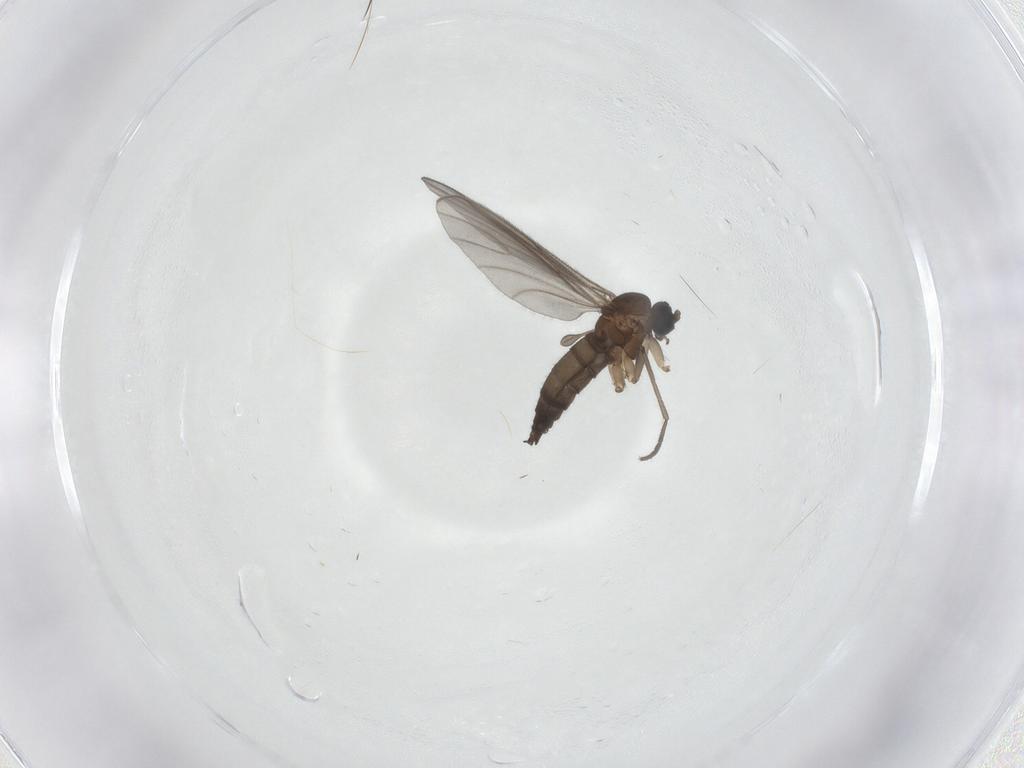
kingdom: Animalia
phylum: Arthropoda
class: Insecta
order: Diptera
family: Sciaridae
